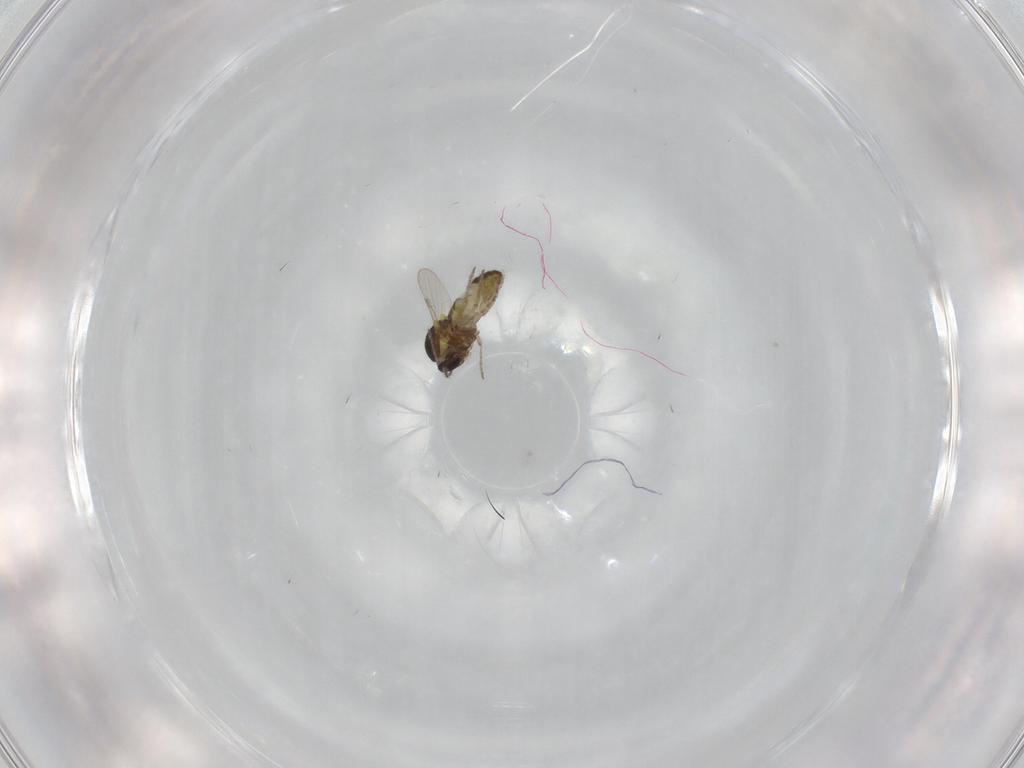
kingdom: Animalia
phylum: Arthropoda
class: Insecta
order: Diptera
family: Ceratopogonidae
